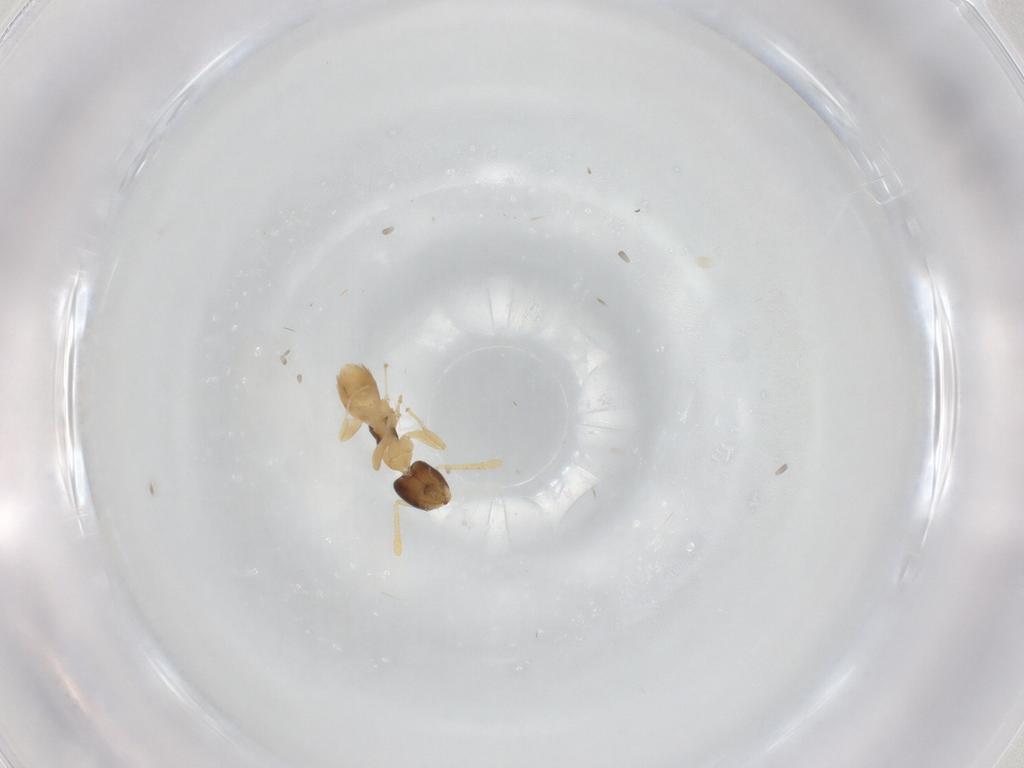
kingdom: Animalia
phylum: Arthropoda
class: Insecta
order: Hymenoptera
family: Formicidae
